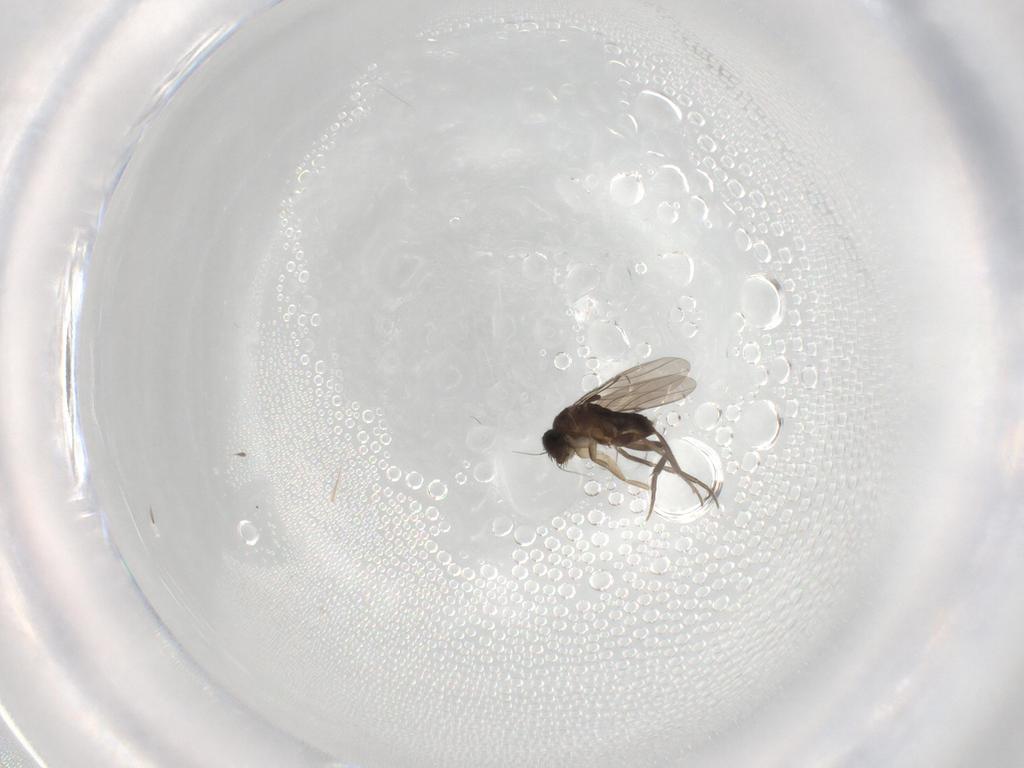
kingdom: Animalia
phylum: Arthropoda
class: Insecta
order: Diptera
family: Sciaridae
